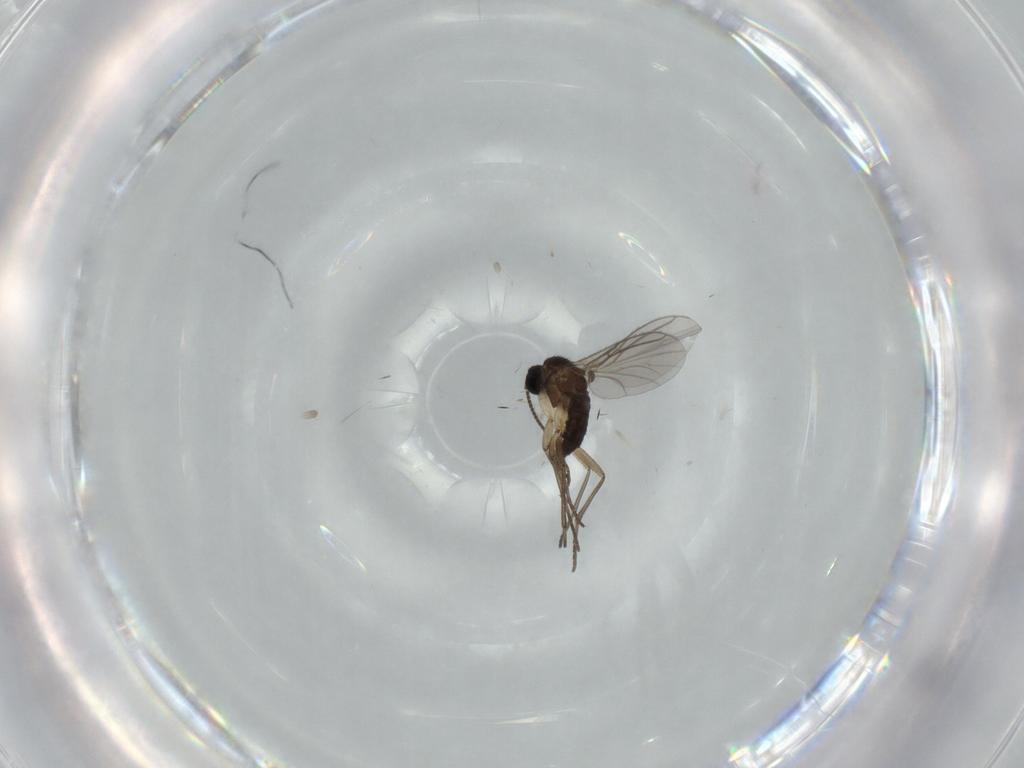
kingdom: Animalia
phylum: Arthropoda
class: Insecta
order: Diptera
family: Sciaridae
